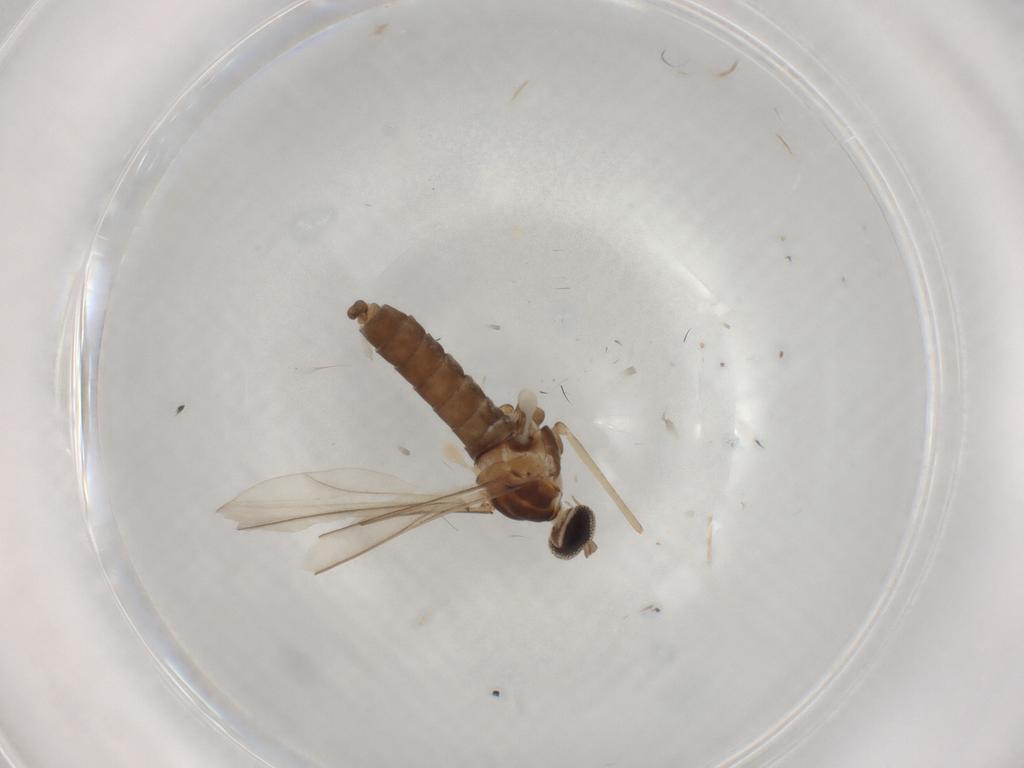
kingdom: Animalia
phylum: Arthropoda
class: Insecta
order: Diptera
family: Cecidomyiidae
